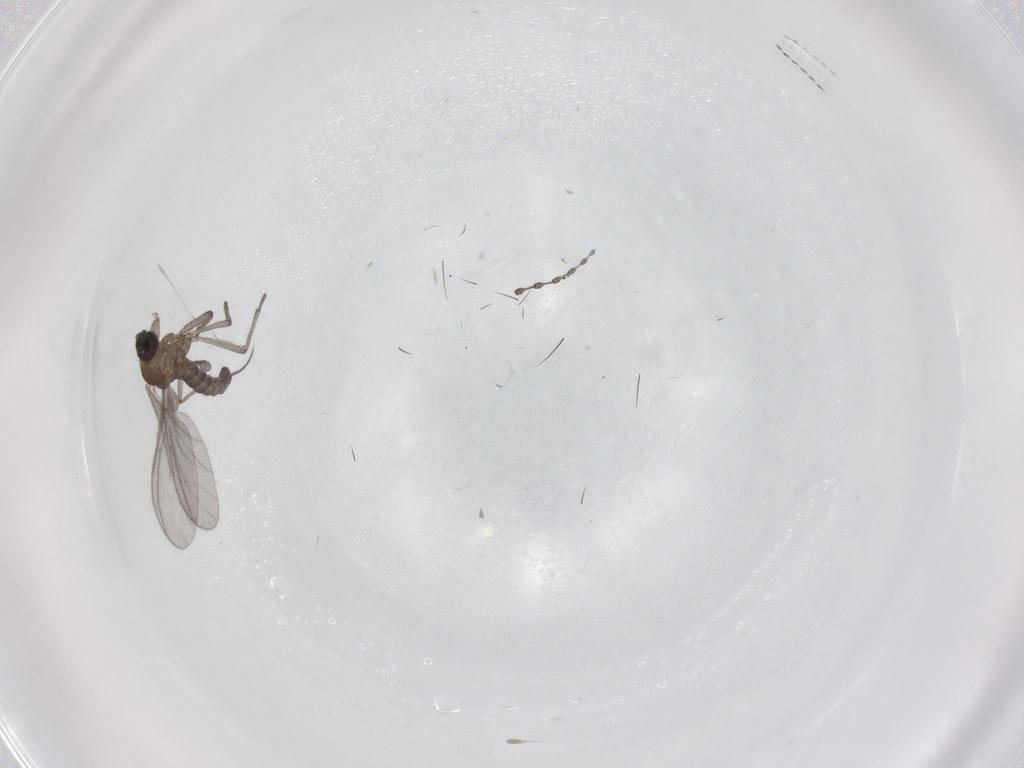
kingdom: Animalia
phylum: Arthropoda
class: Insecta
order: Diptera
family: Sciaridae
